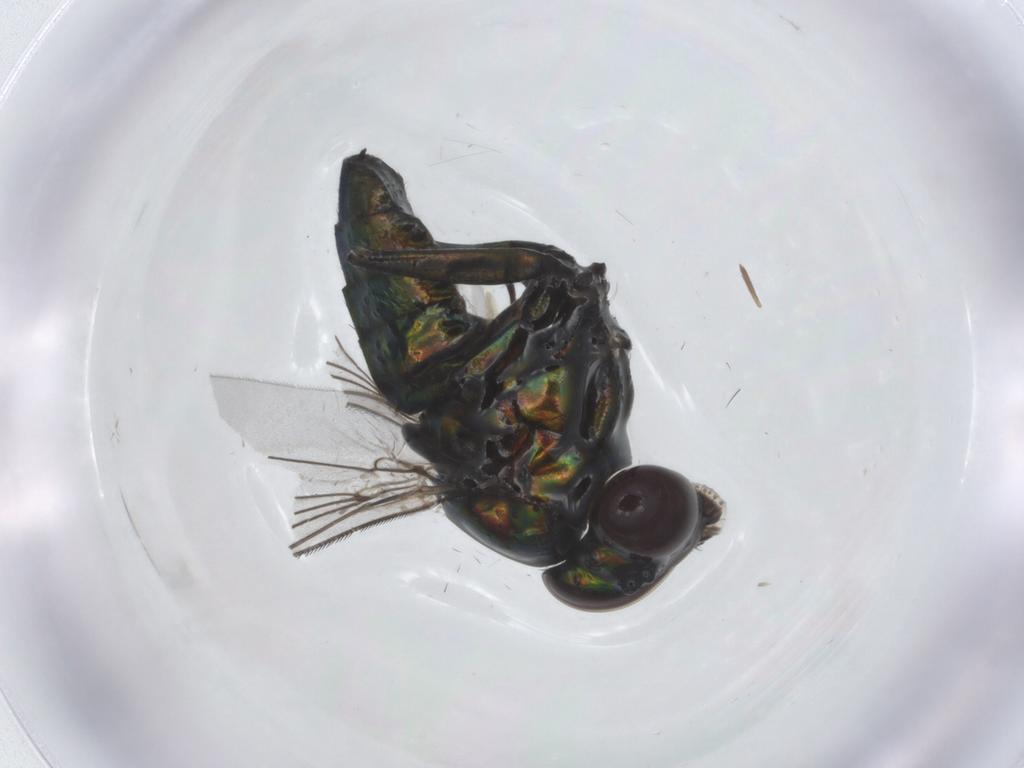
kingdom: Animalia
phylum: Arthropoda
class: Insecta
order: Diptera
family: Dolichopodidae
